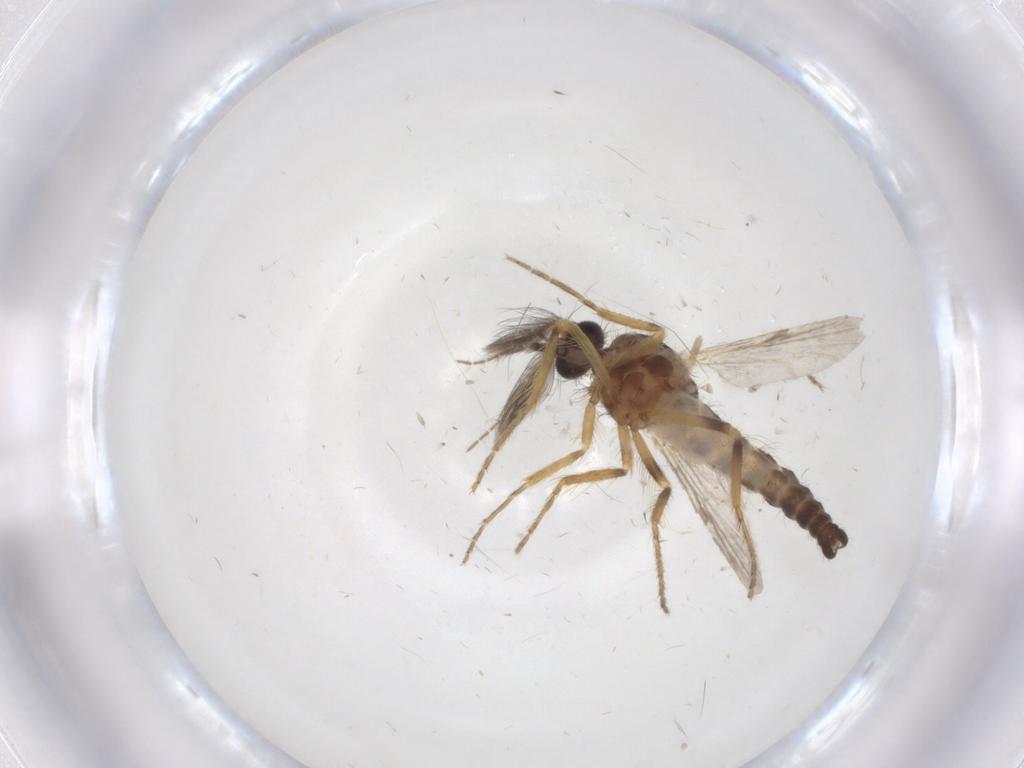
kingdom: Animalia
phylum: Arthropoda
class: Insecta
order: Diptera
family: Ceratopogonidae
